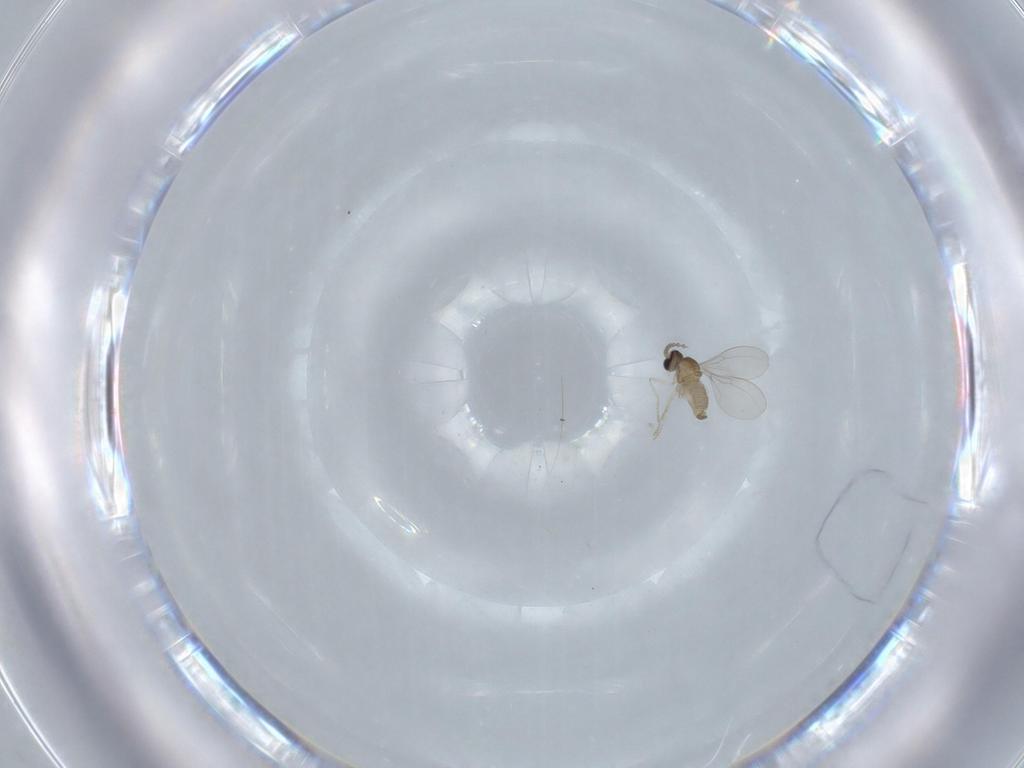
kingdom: Animalia
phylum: Arthropoda
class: Insecta
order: Diptera
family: Cecidomyiidae
